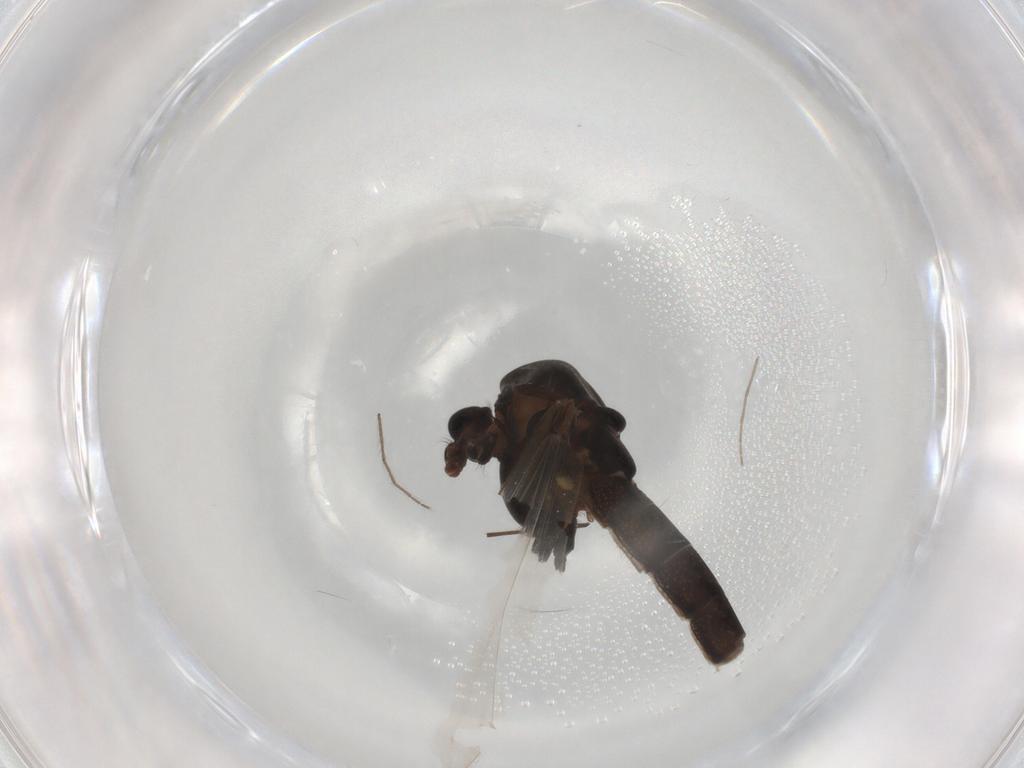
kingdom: Animalia
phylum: Arthropoda
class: Insecta
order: Diptera
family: Chironomidae
